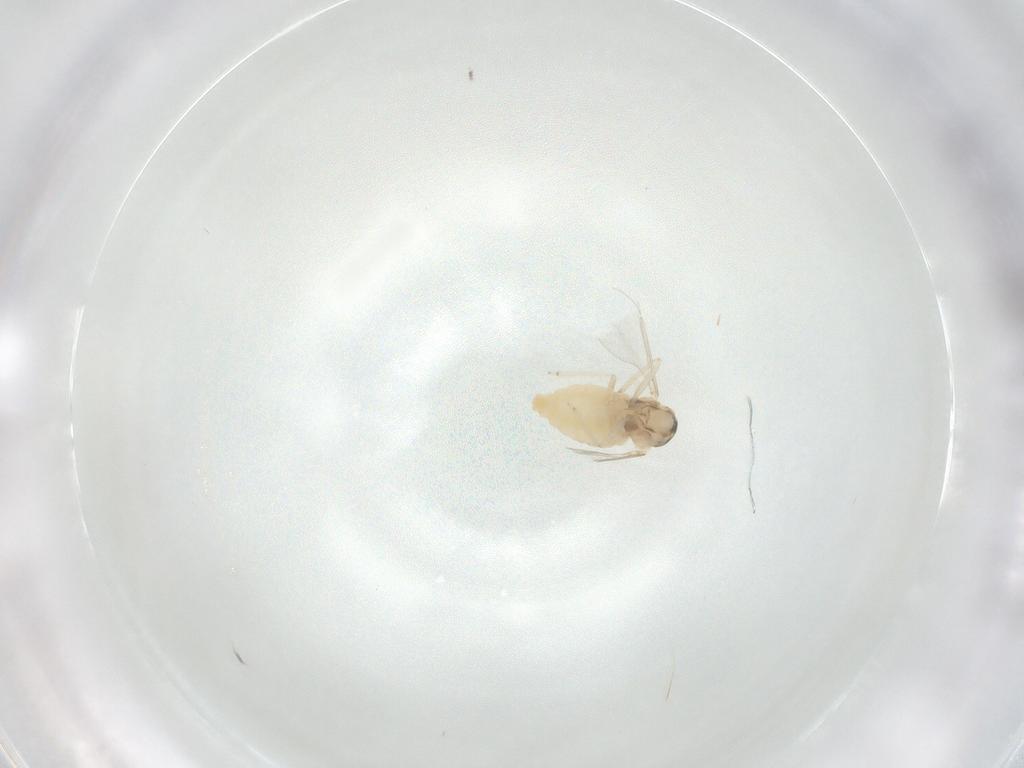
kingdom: Animalia
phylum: Arthropoda
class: Insecta
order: Diptera
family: Cecidomyiidae
